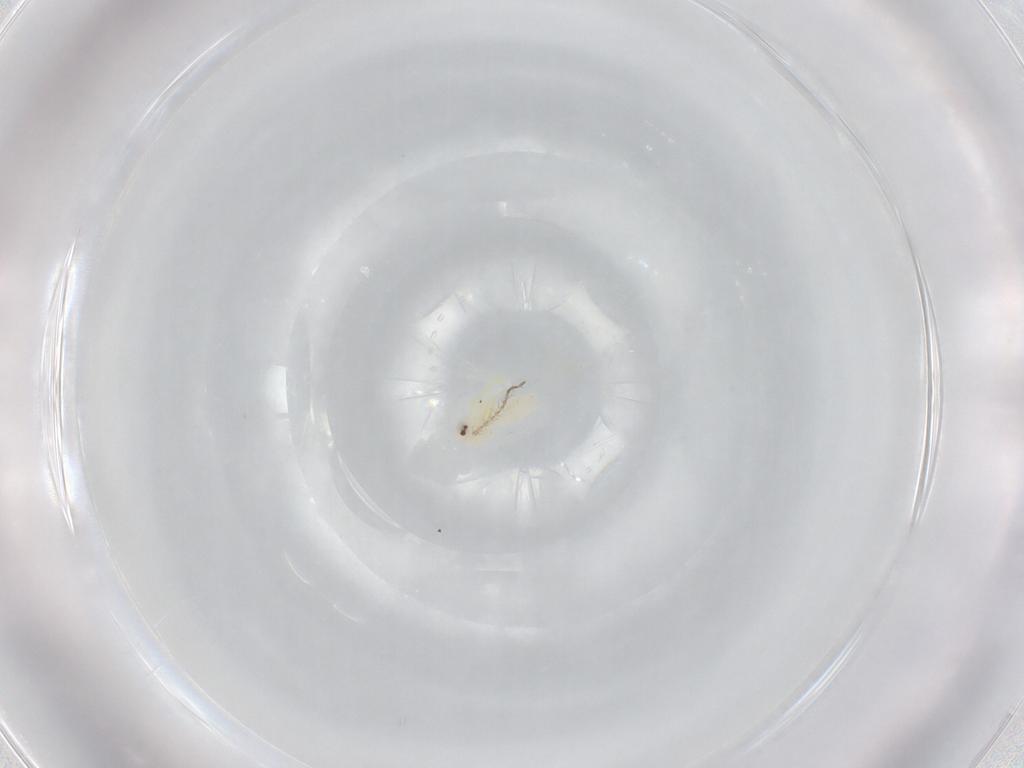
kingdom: Animalia
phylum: Arthropoda
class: Insecta
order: Hemiptera
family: Aleyrodidae
